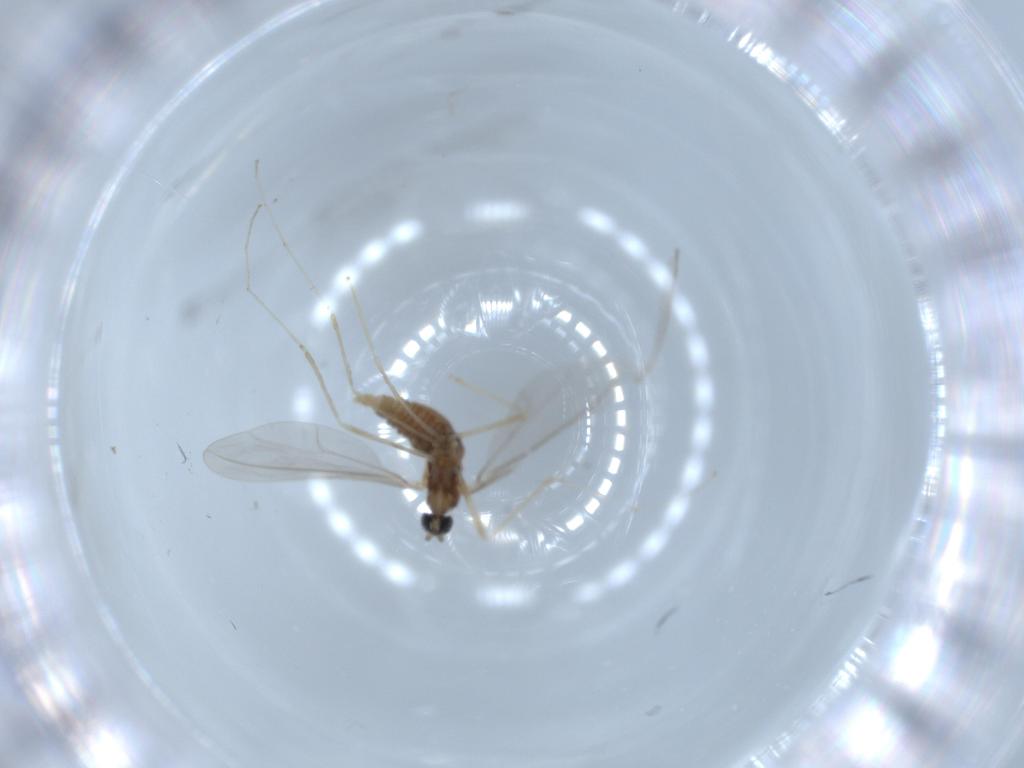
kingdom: Animalia
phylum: Arthropoda
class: Insecta
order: Diptera
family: Cecidomyiidae
